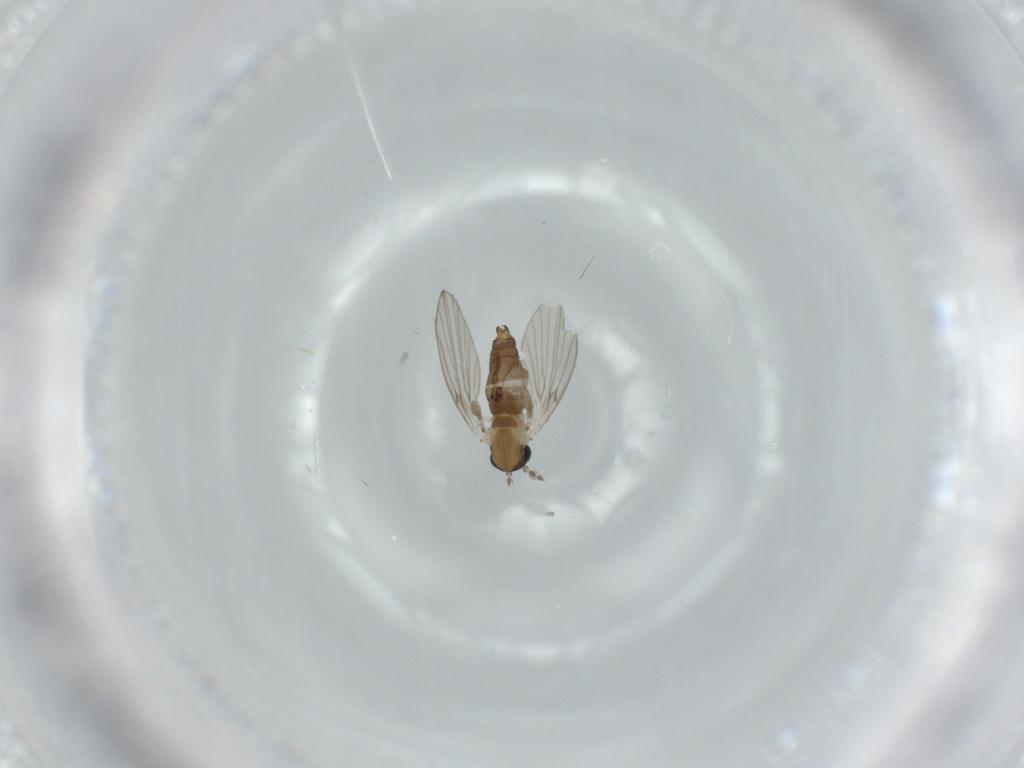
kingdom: Animalia
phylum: Arthropoda
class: Insecta
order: Diptera
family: Psychodidae
